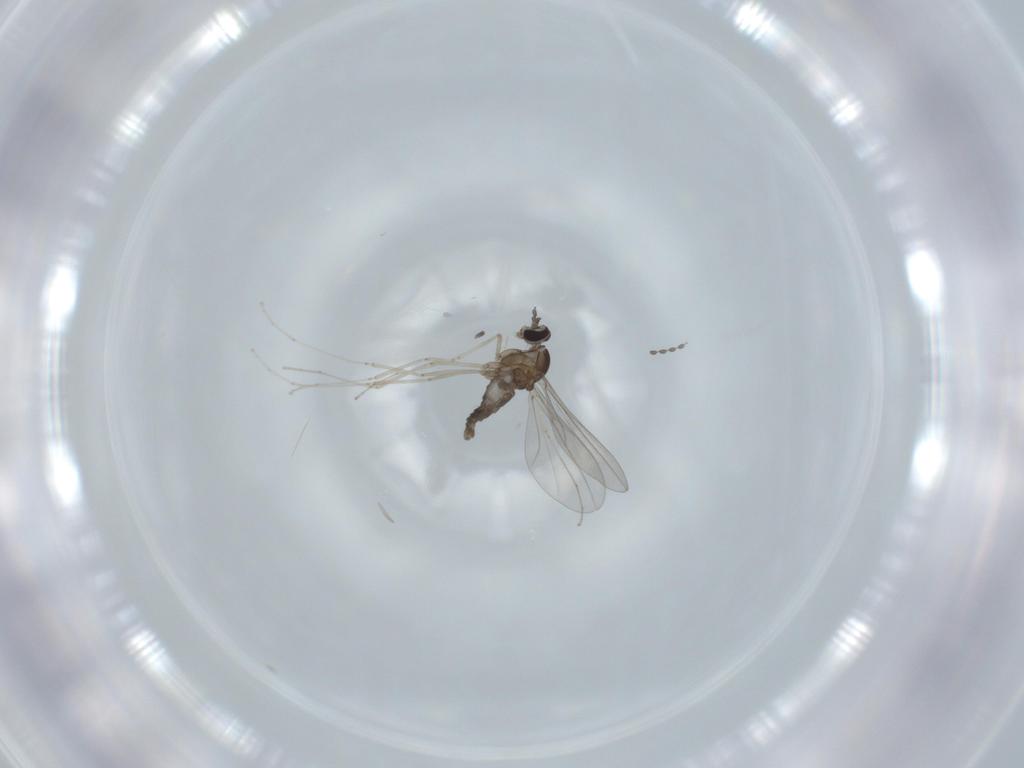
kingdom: Animalia
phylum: Arthropoda
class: Insecta
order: Diptera
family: Cecidomyiidae
